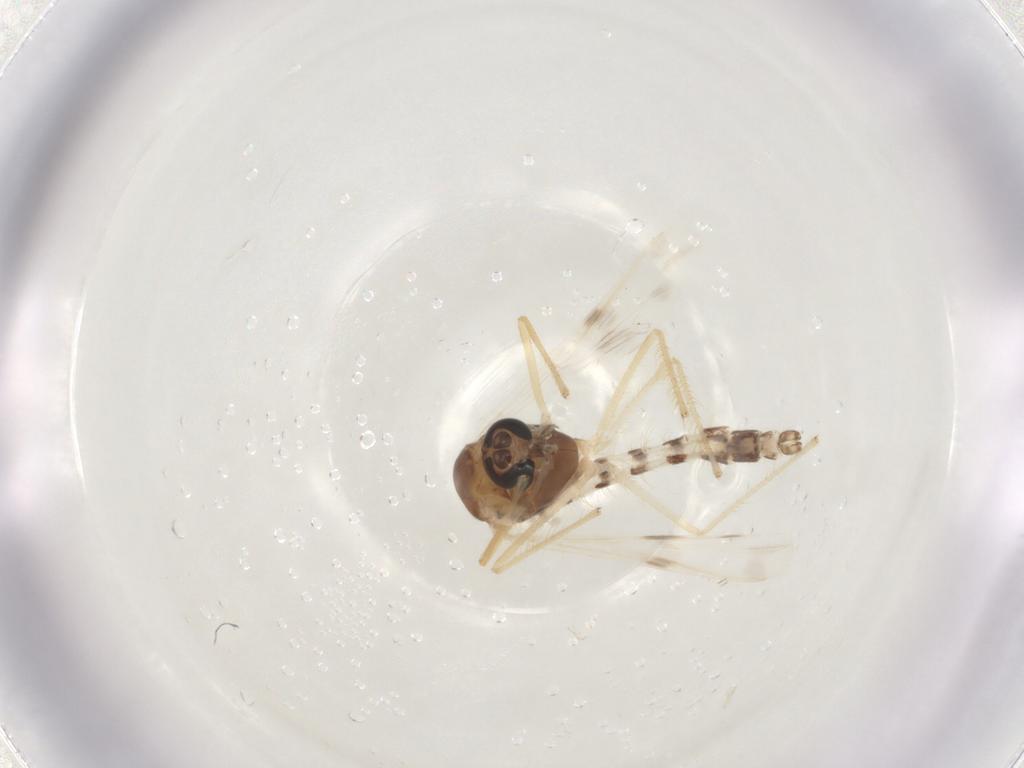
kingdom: Animalia
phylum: Arthropoda
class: Insecta
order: Diptera
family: Chironomidae
